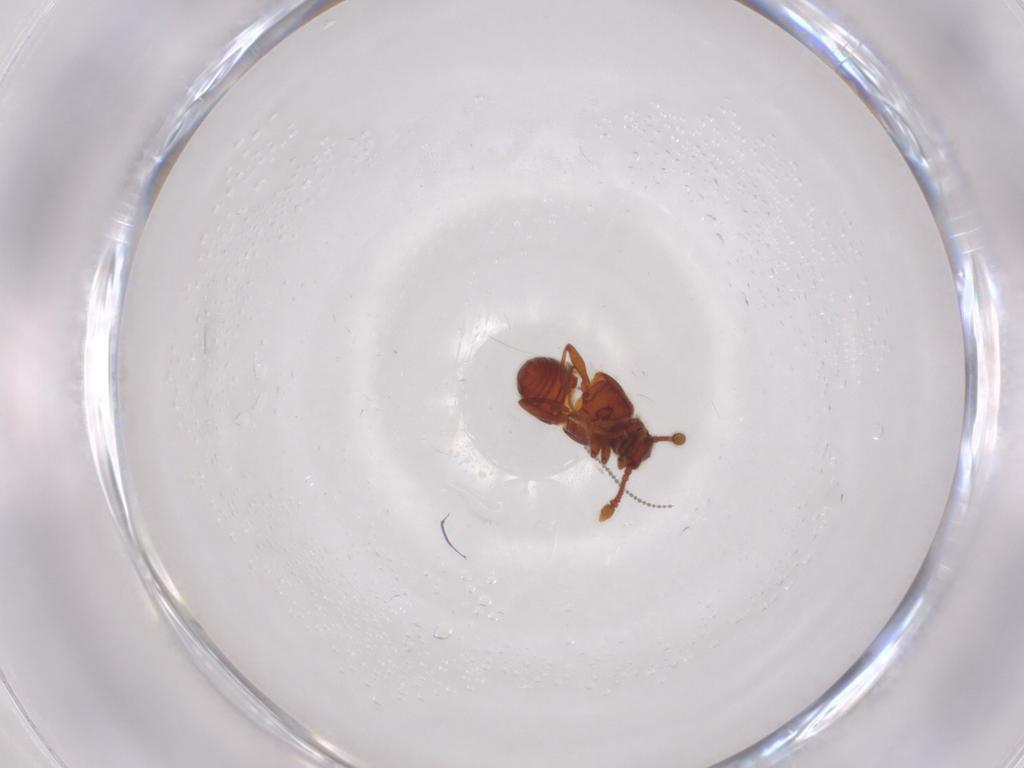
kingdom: Animalia
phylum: Arthropoda
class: Insecta
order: Coleoptera
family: Staphylinidae
